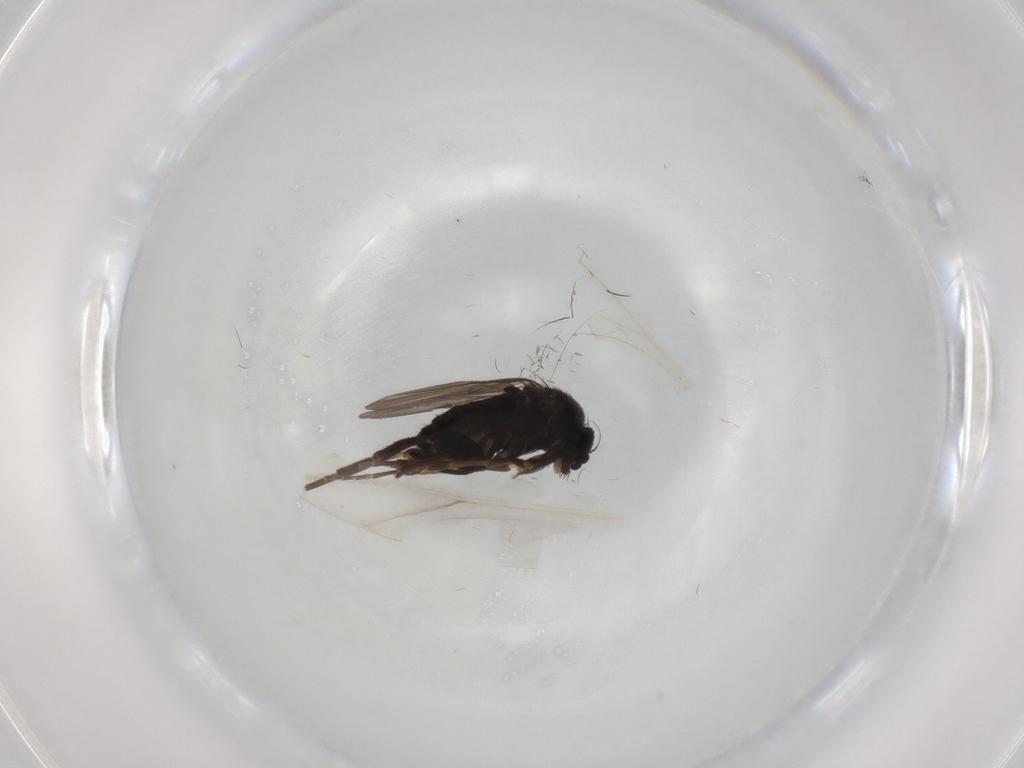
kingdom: Animalia
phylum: Arthropoda
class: Insecta
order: Diptera
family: Phoridae
